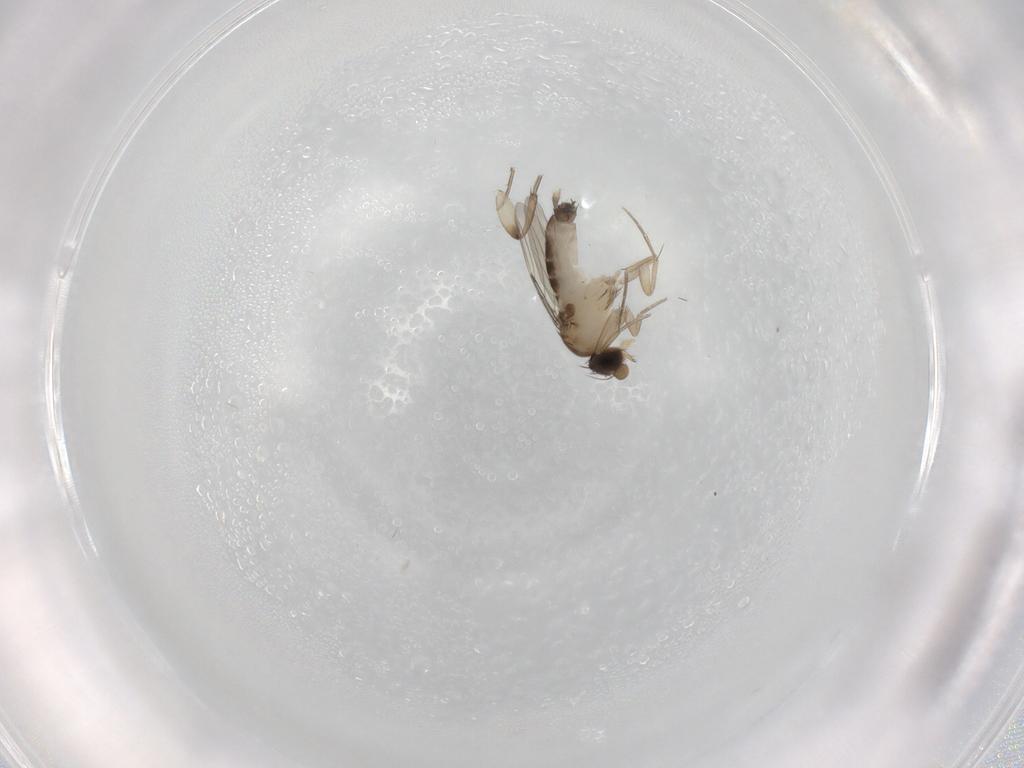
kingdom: Animalia
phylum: Arthropoda
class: Insecta
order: Diptera
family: Phoridae
